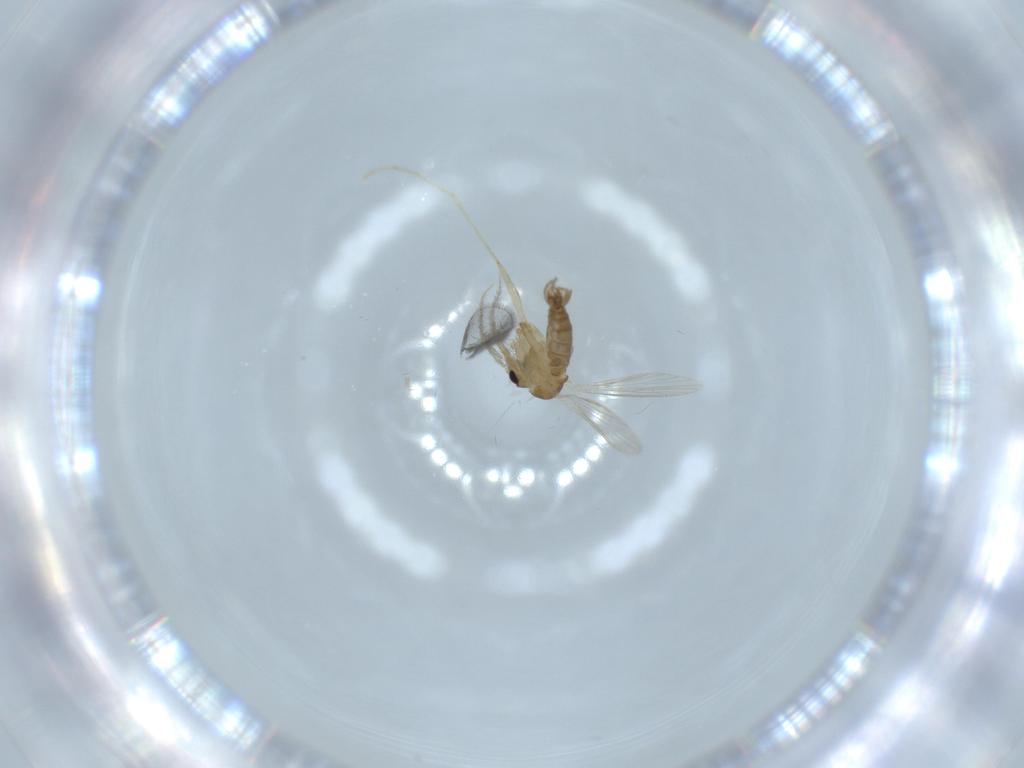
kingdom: Animalia
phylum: Arthropoda
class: Insecta
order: Diptera
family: Psychodidae
